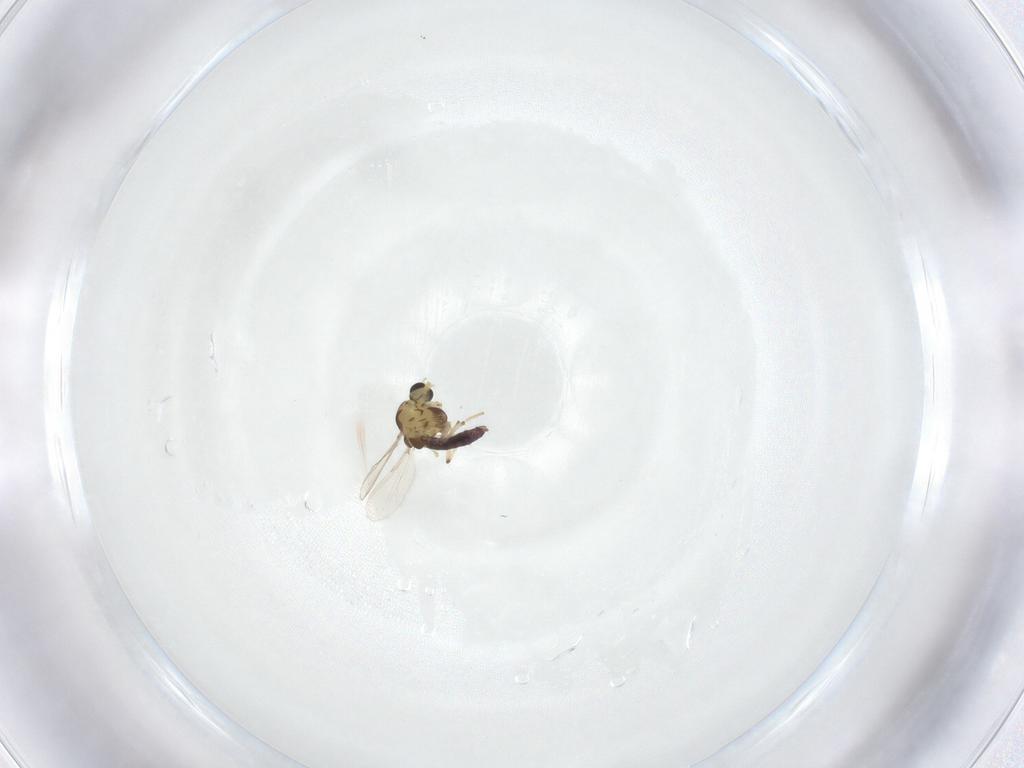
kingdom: Animalia
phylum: Arthropoda
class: Insecta
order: Diptera
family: Chironomidae
